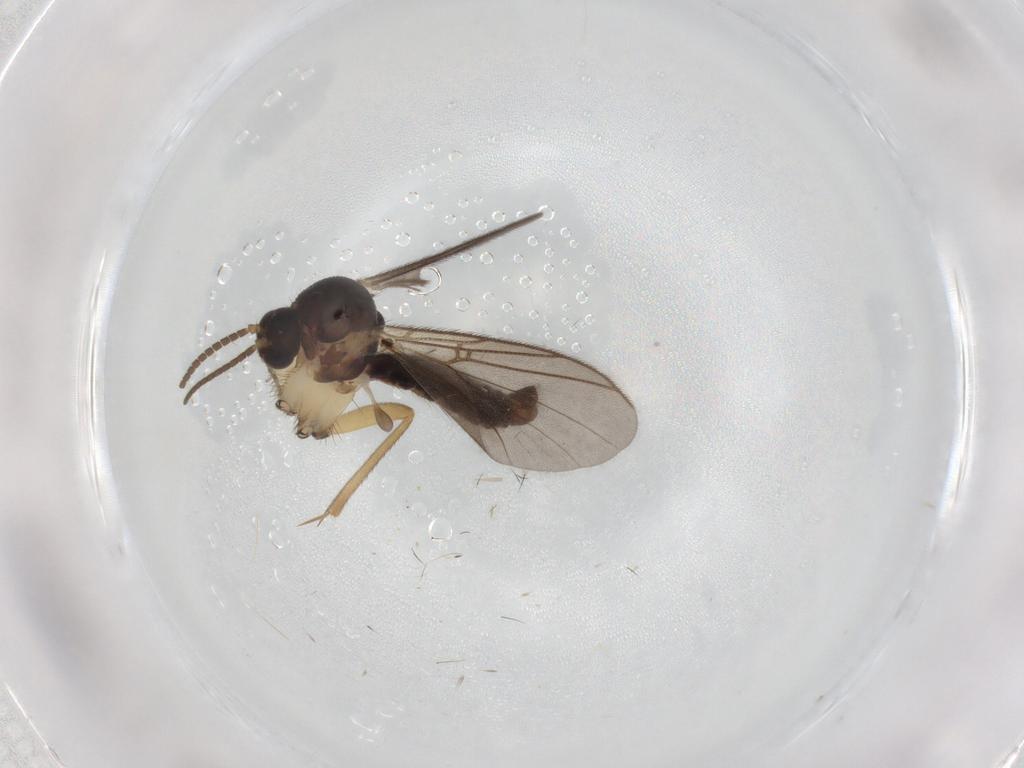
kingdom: Animalia
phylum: Arthropoda
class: Insecta
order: Diptera
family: Mycetophilidae
